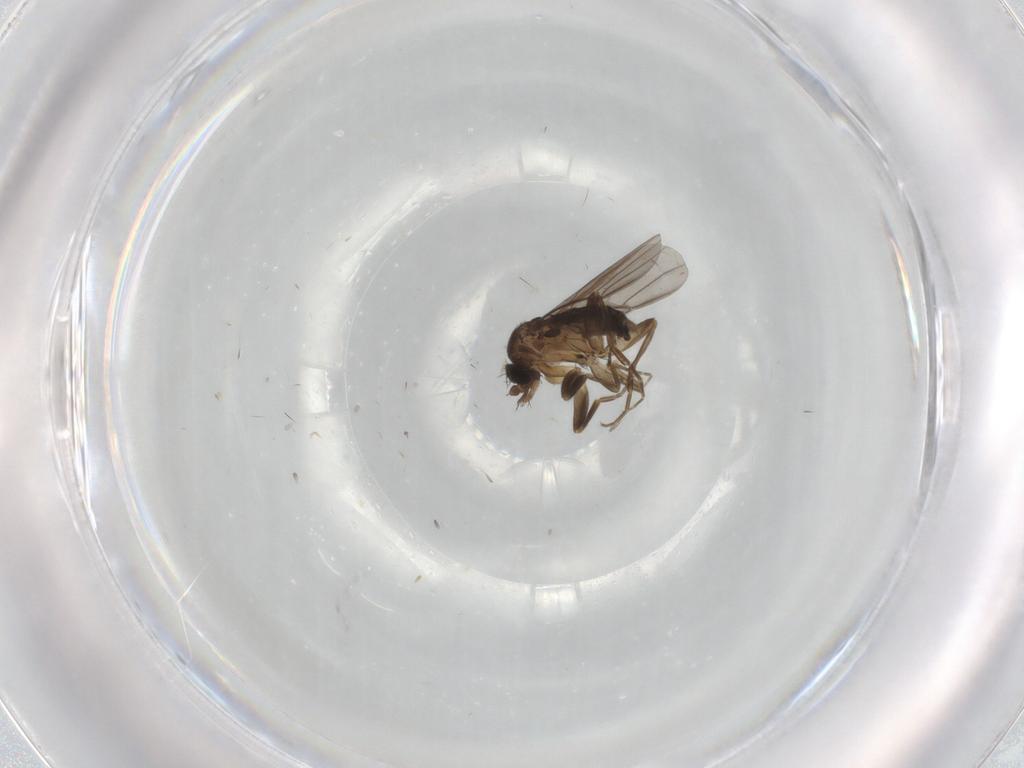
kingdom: Animalia
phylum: Arthropoda
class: Insecta
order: Diptera
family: Phoridae
